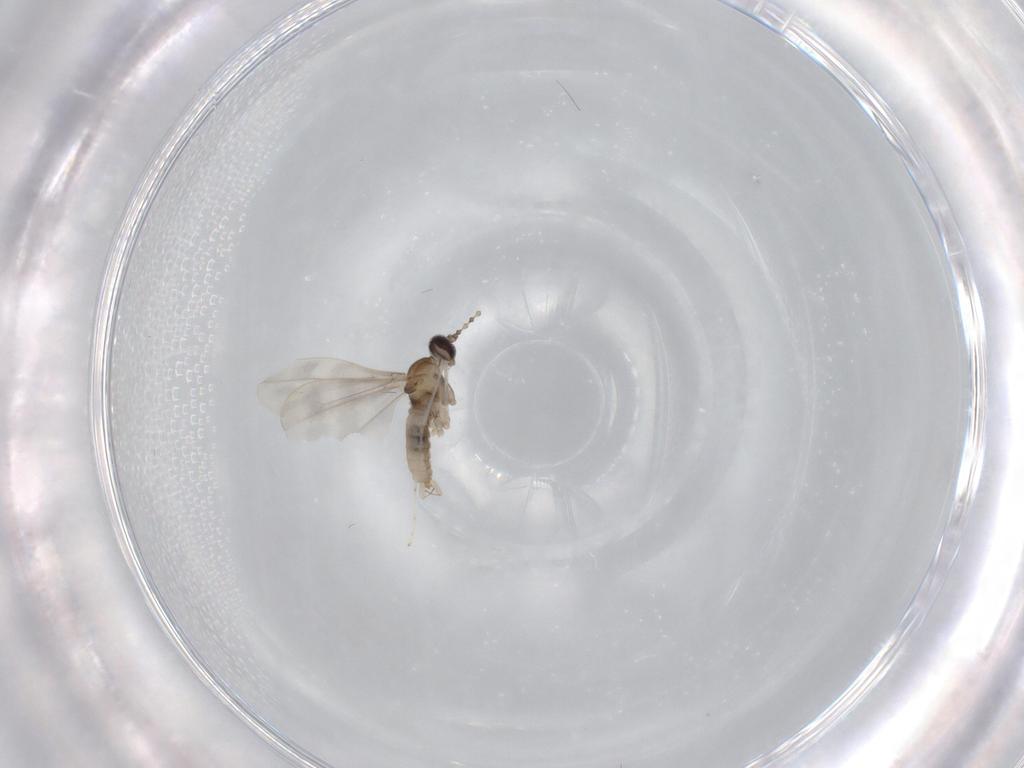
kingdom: Animalia
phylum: Arthropoda
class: Insecta
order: Diptera
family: Cecidomyiidae
